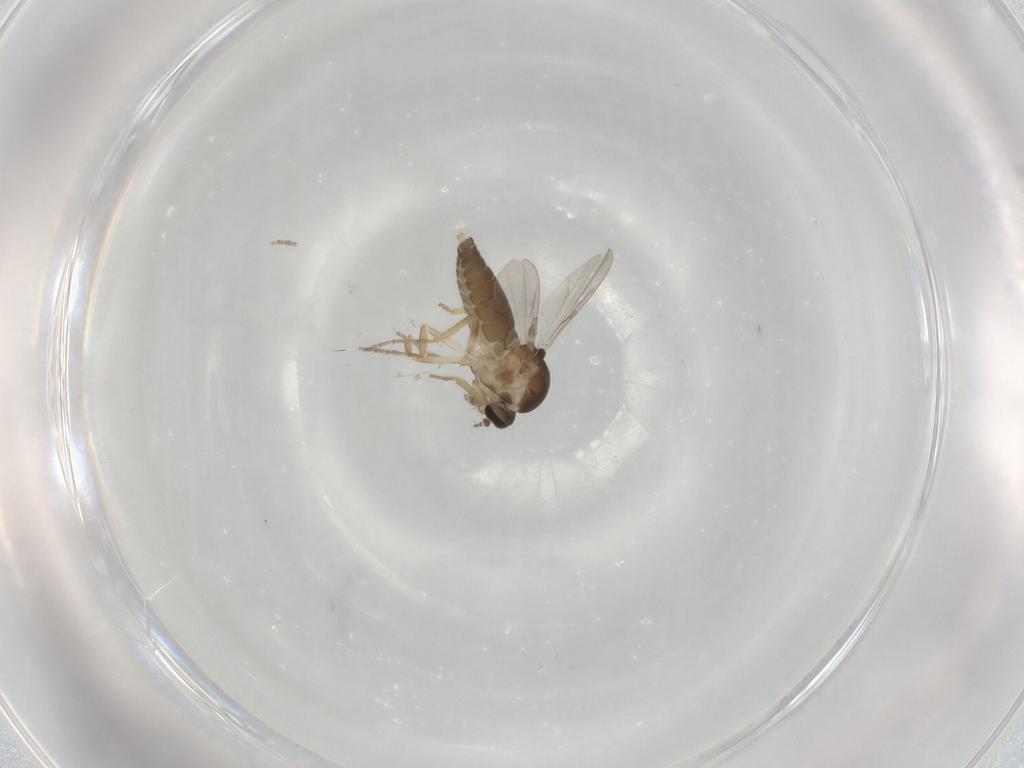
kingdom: Animalia
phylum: Arthropoda
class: Insecta
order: Diptera
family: Ceratopogonidae
